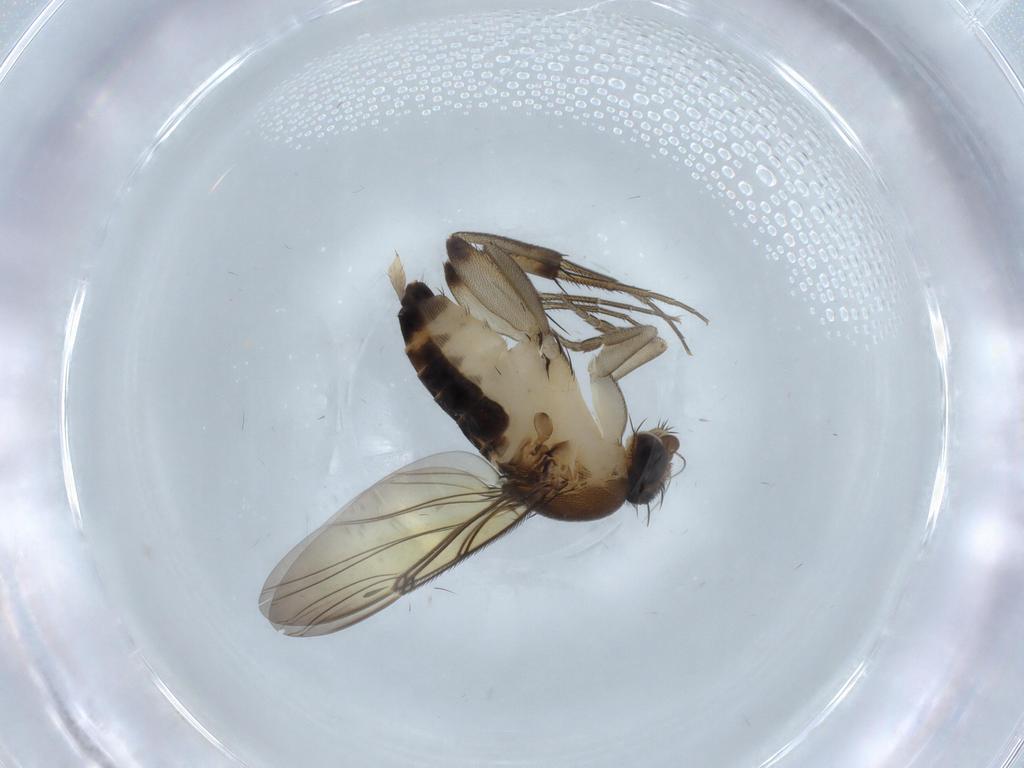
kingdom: Animalia
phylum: Arthropoda
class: Insecta
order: Diptera
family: Phoridae
